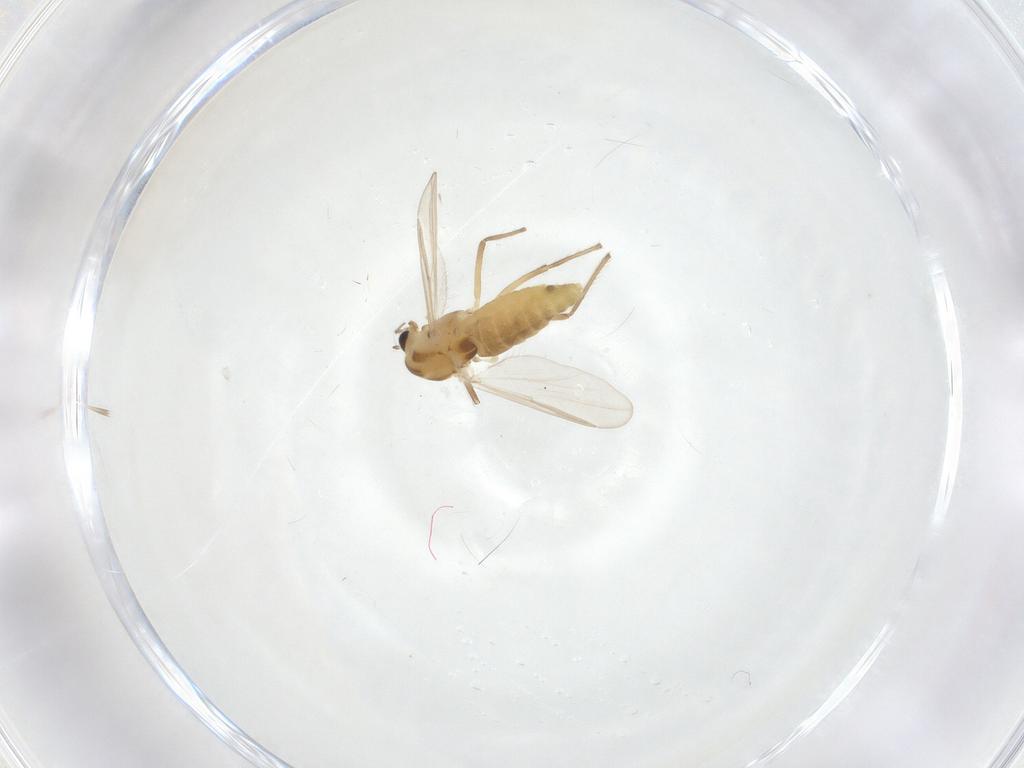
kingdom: Animalia
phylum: Arthropoda
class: Insecta
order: Diptera
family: Chironomidae
